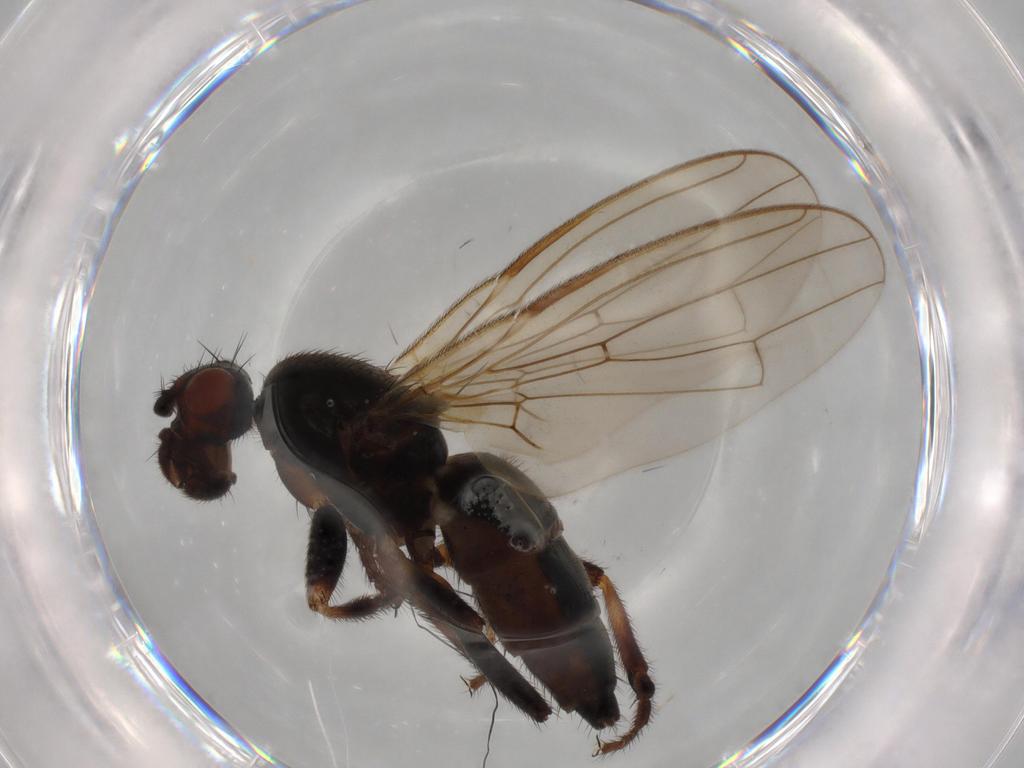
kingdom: Animalia
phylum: Arthropoda
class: Insecta
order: Diptera
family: Sphaeroceridae
